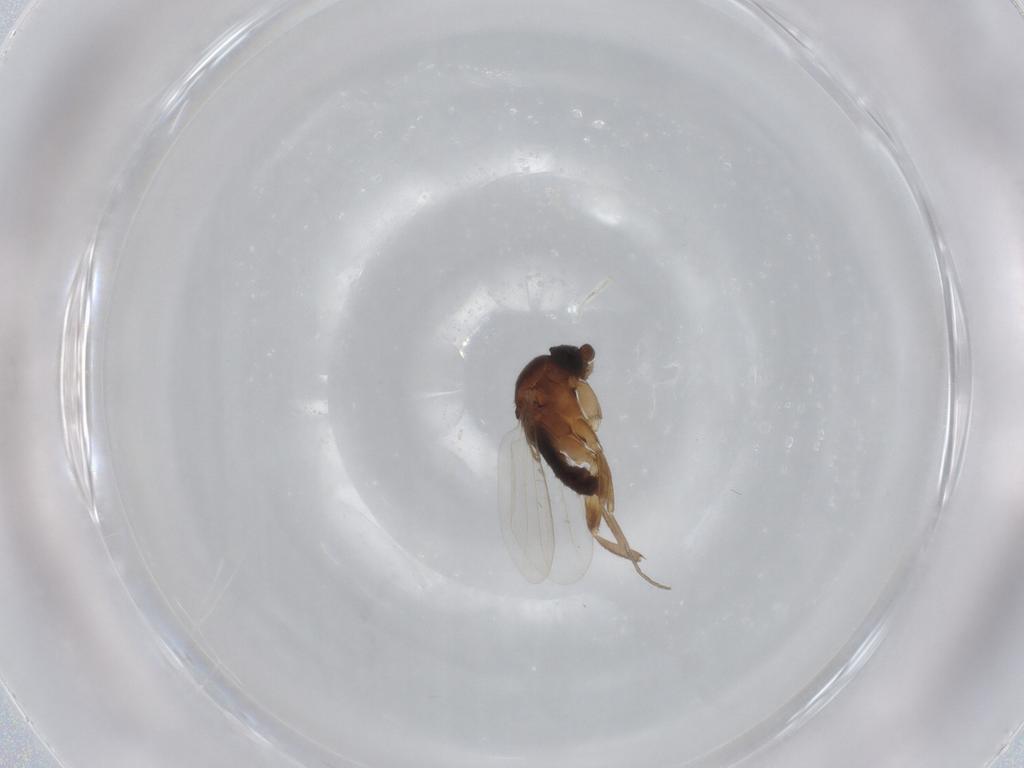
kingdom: Animalia
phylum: Arthropoda
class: Insecta
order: Diptera
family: Phoridae
